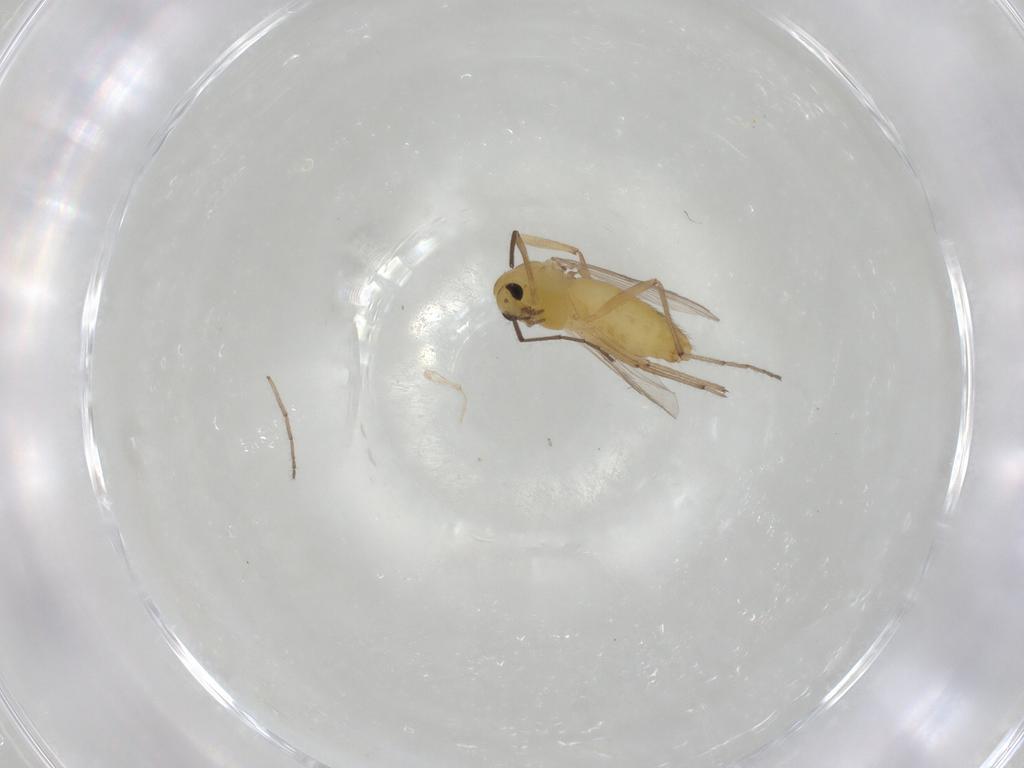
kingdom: Animalia
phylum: Arthropoda
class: Insecta
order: Diptera
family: Chironomidae
